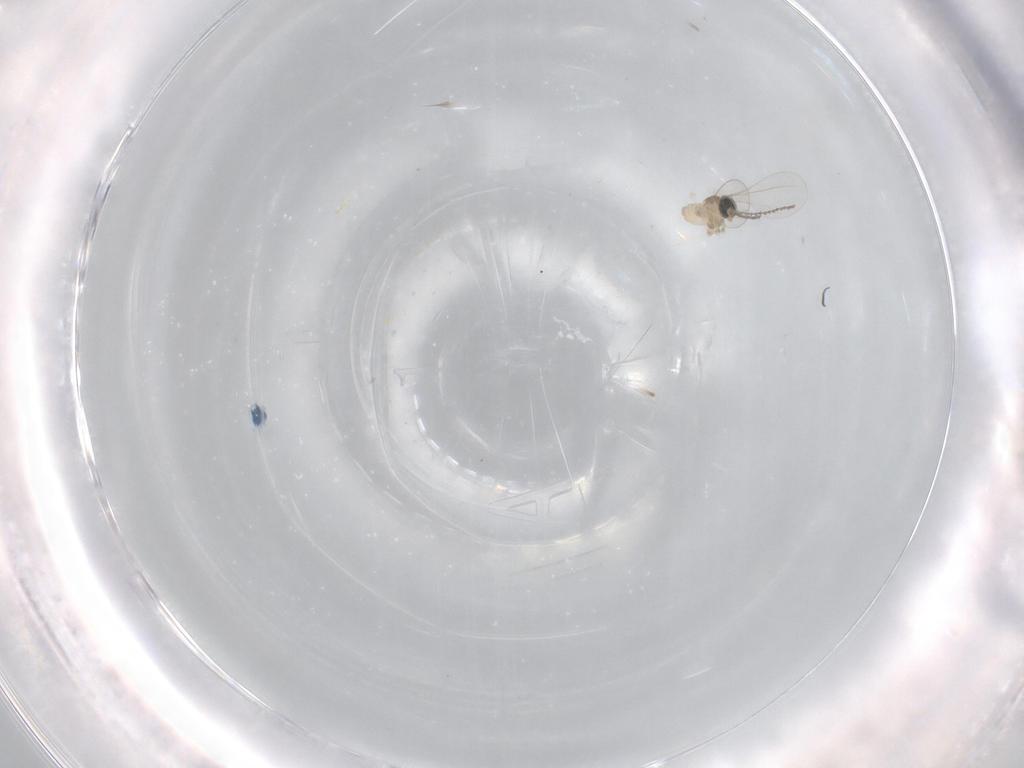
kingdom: Animalia
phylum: Arthropoda
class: Insecta
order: Diptera
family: Cecidomyiidae
